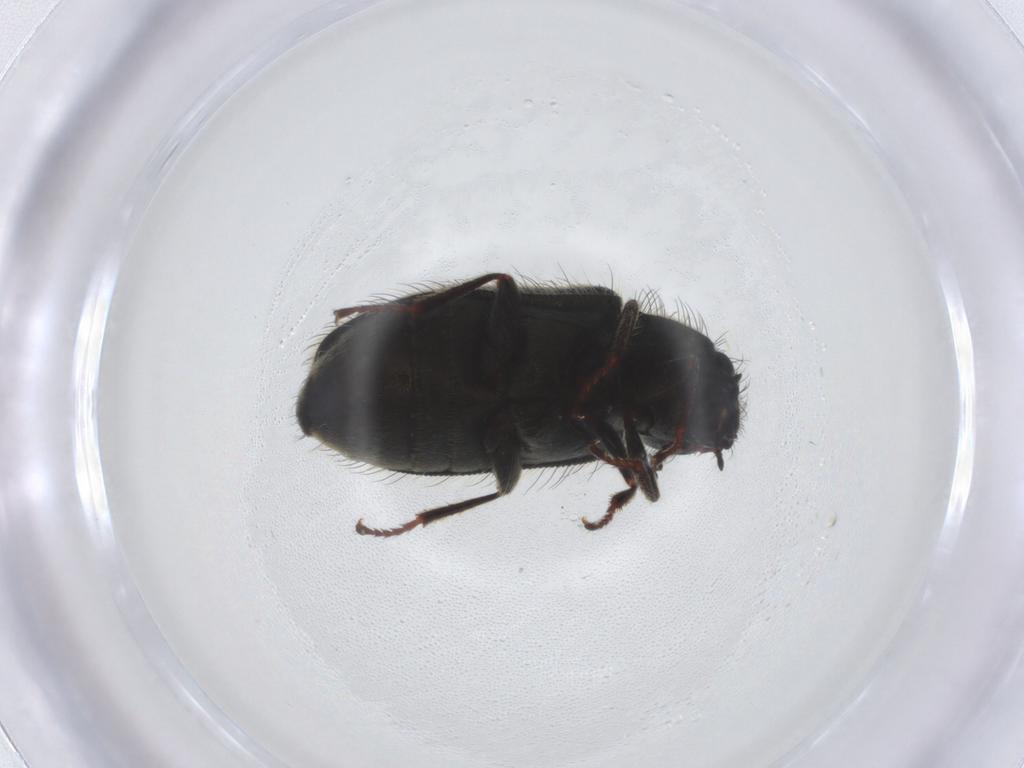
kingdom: Animalia
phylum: Arthropoda
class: Insecta
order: Coleoptera
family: Melyridae
